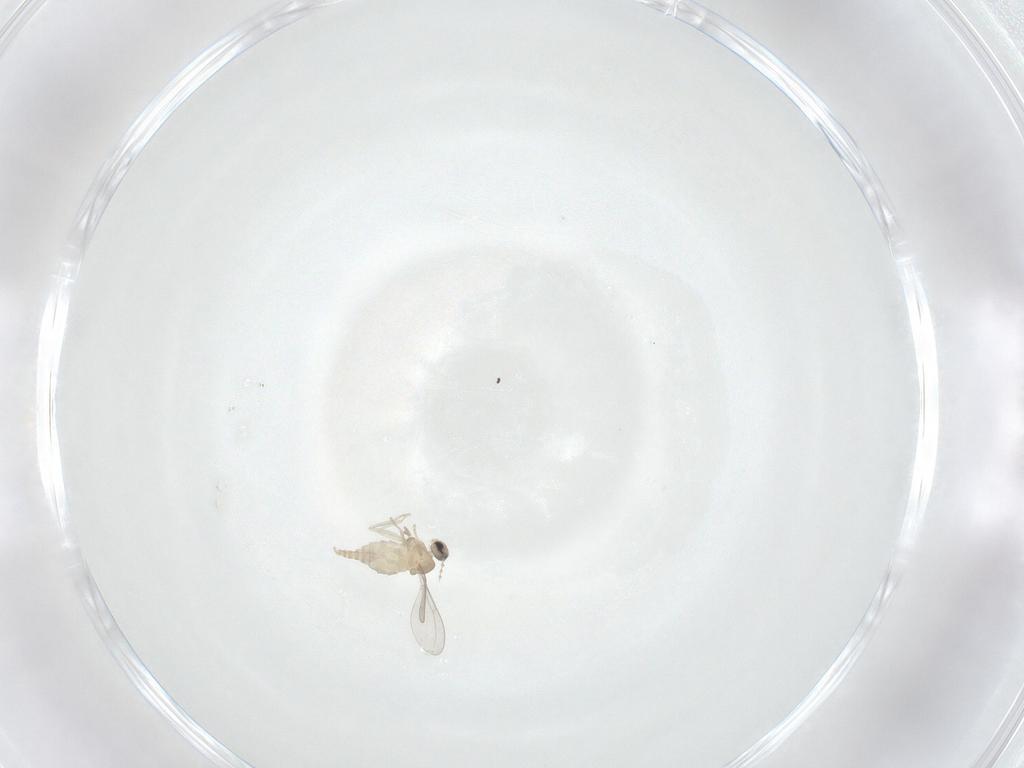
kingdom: Animalia
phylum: Arthropoda
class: Insecta
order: Diptera
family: Cecidomyiidae
